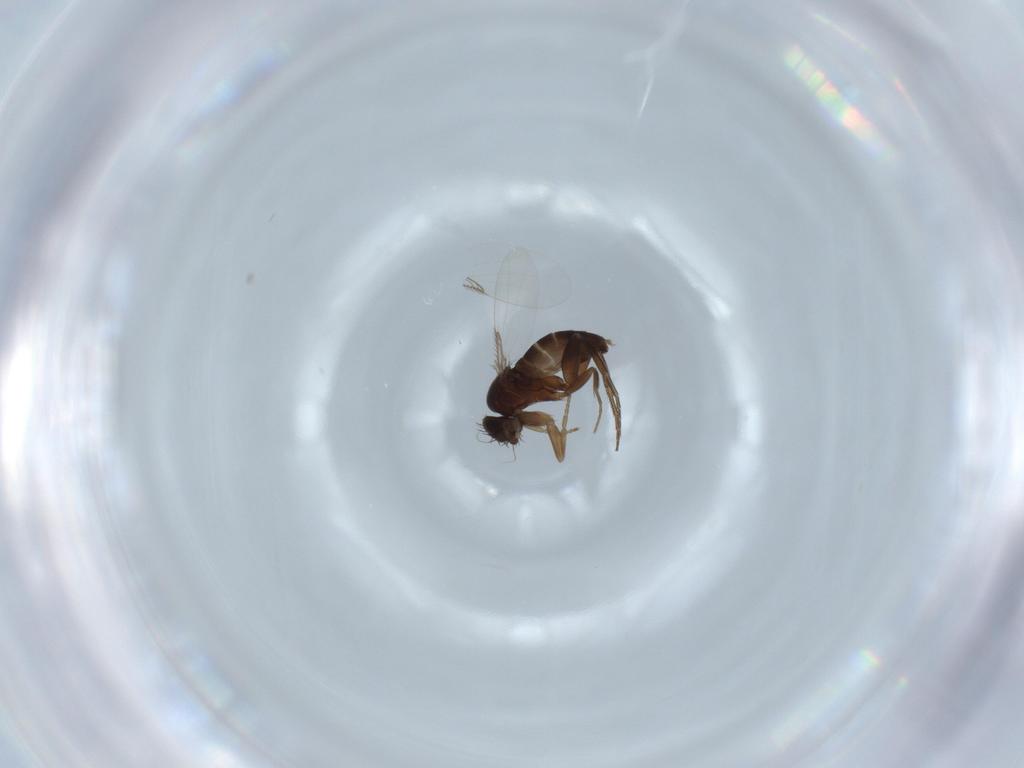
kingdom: Animalia
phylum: Arthropoda
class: Insecta
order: Diptera
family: Phoridae
